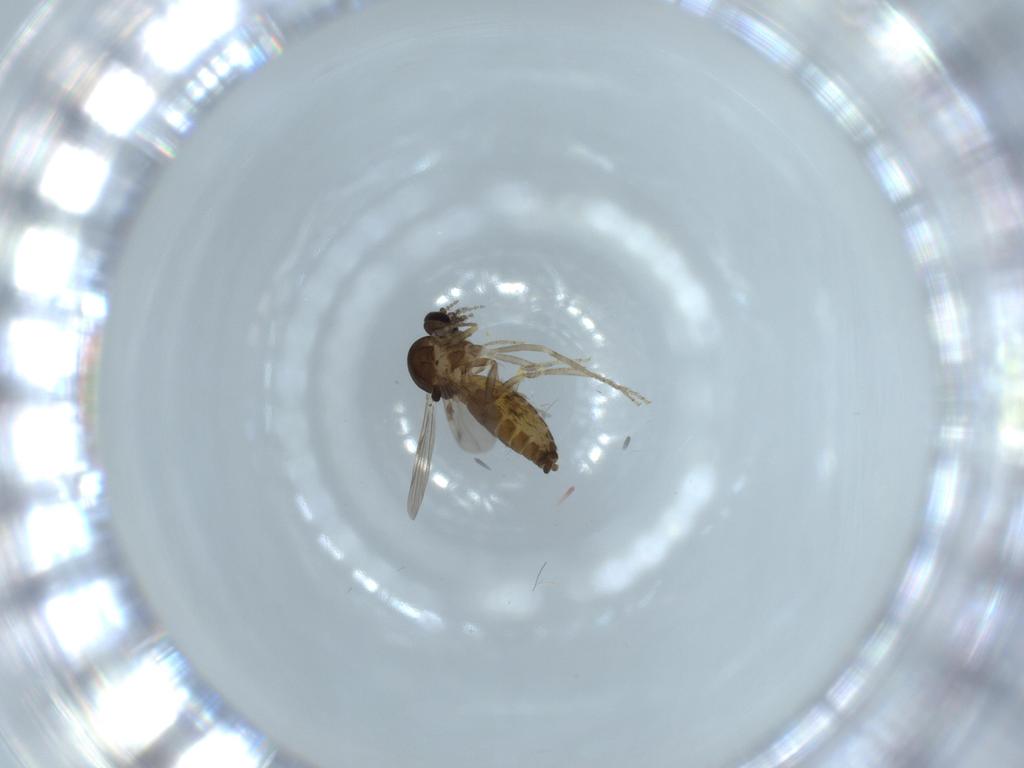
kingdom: Animalia
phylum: Arthropoda
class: Insecta
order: Diptera
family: Ceratopogonidae
